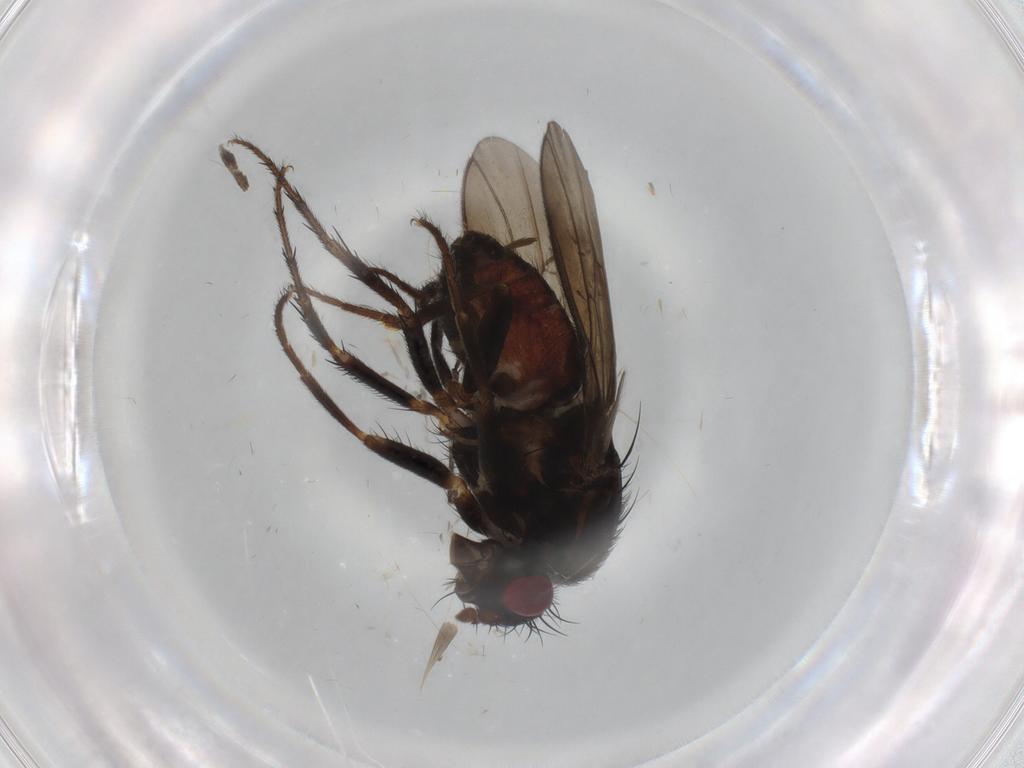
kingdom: Animalia
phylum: Arthropoda
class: Insecta
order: Diptera
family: Sphaeroceridae
